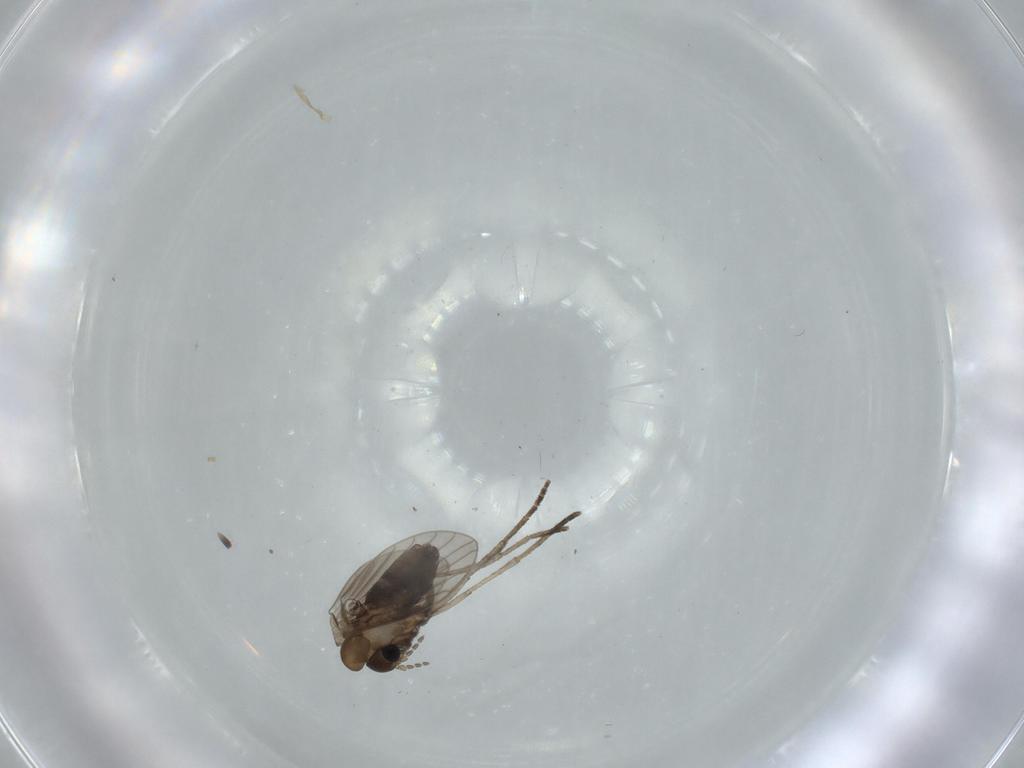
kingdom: Animalia
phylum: Arthropoda
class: Insecta
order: Diptera
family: Psychodidae
